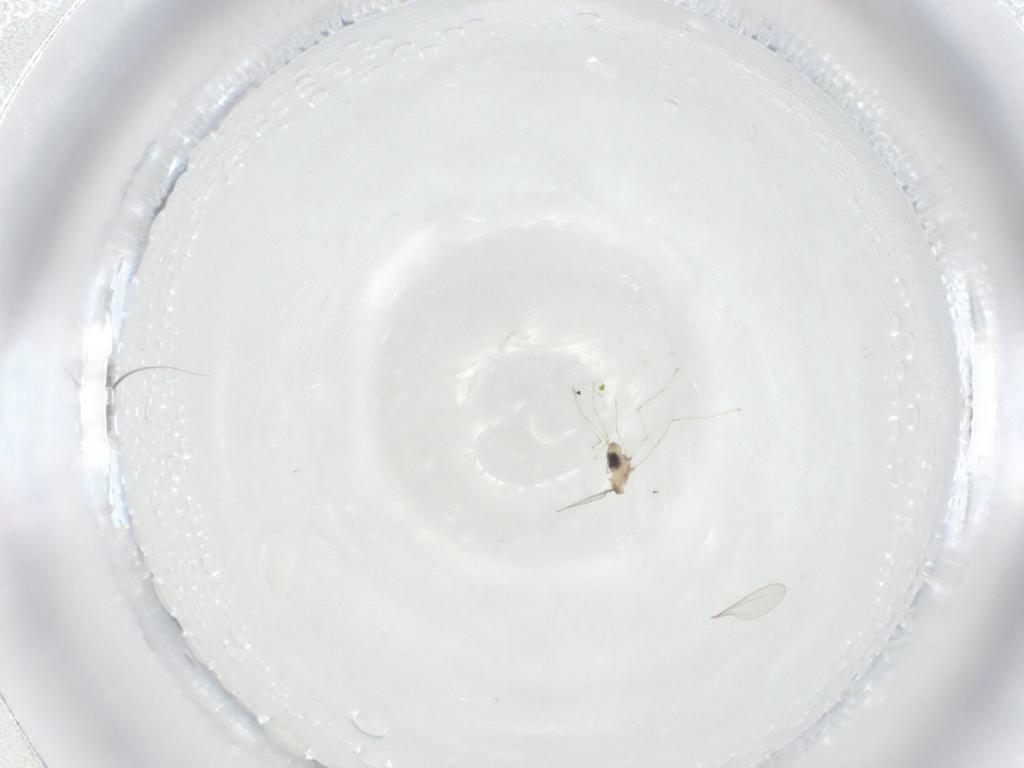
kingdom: Animalia
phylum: Arthropoda
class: Insecta
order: Diptera
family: Cecidomyiidae
